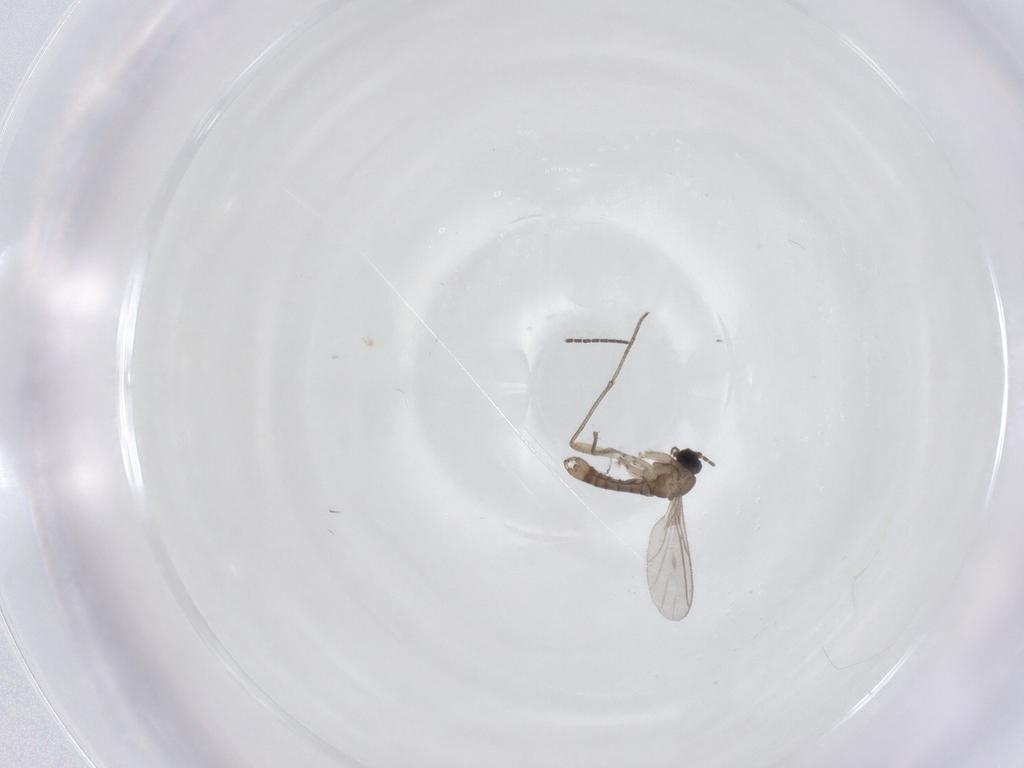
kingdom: Animalia
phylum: Arthropoda
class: Insecta
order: Diptera
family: Sciaridae
